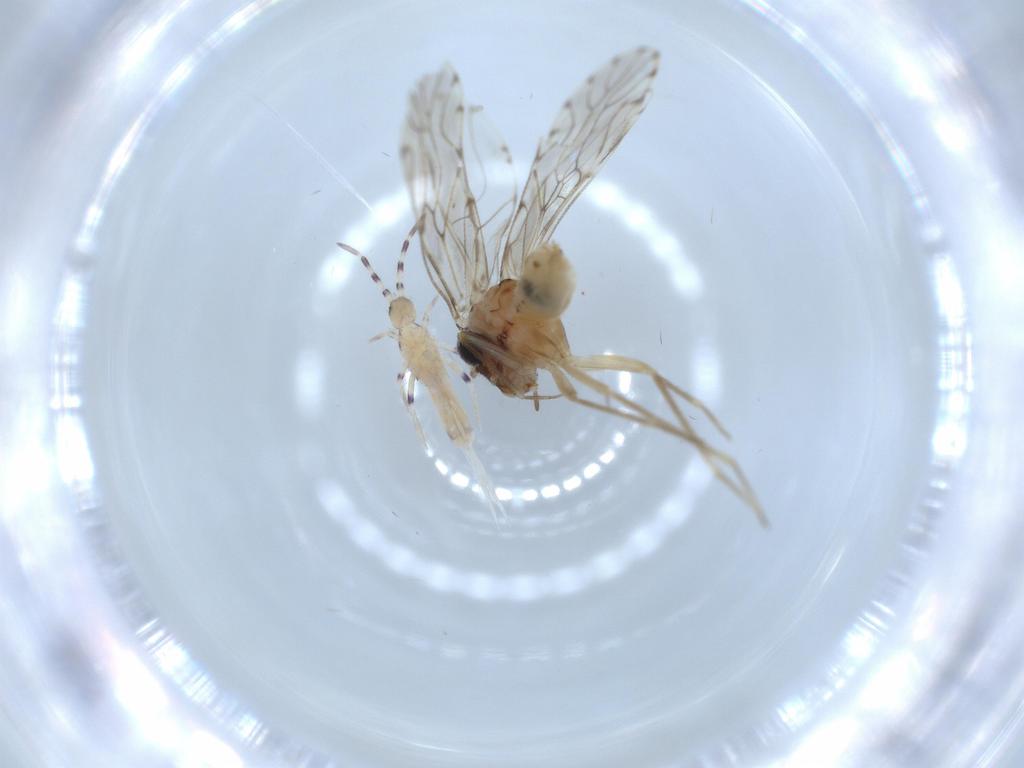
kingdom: Animalia
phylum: Arthropoda
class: Insecta
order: Psocodea
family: Ectopsocidae
